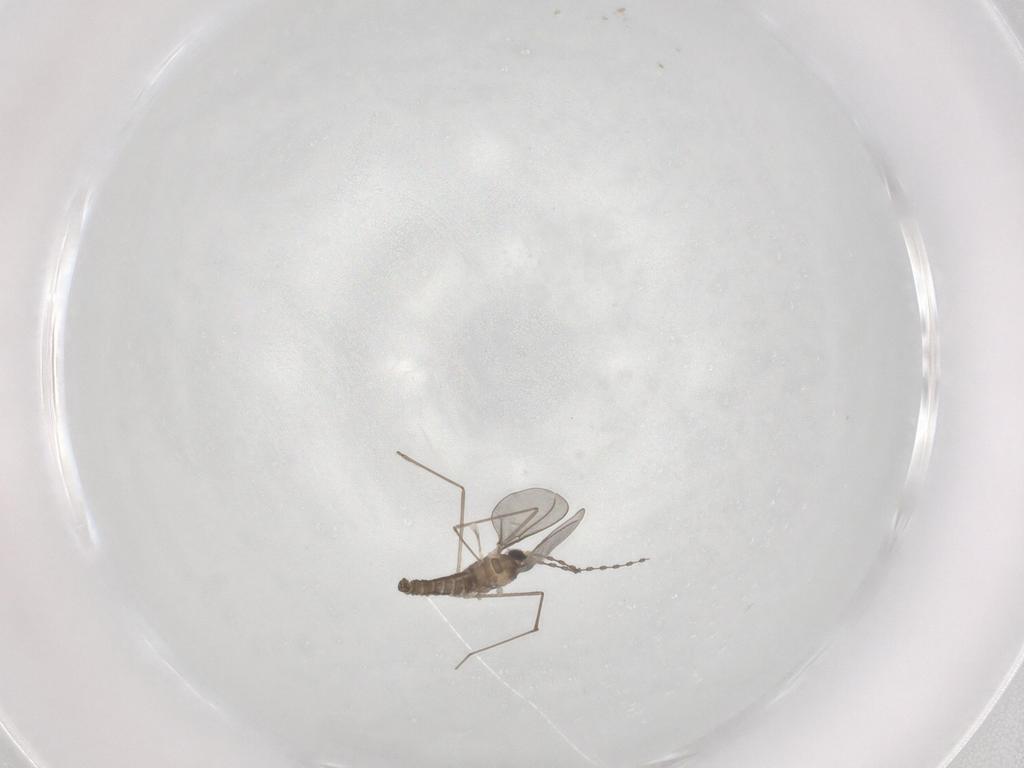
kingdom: Animalia
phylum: Arthropoda
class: Insecta
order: Diptera
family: Cecidomyiidae
